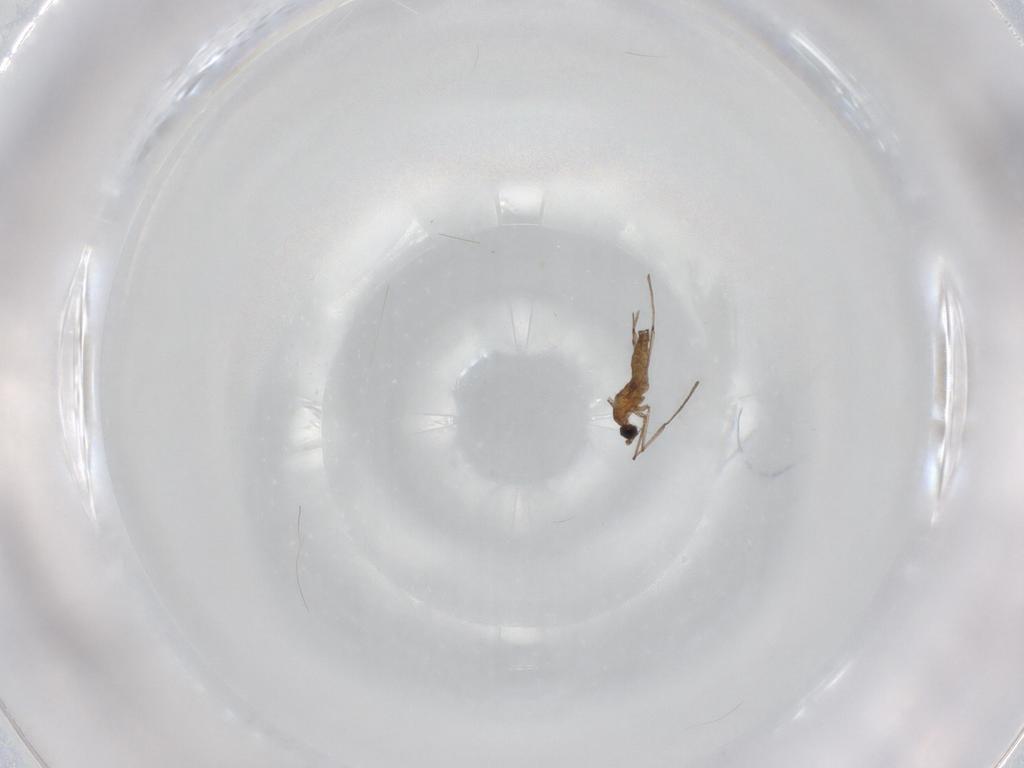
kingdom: Animalia
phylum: Arthropoda
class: Insecta
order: Diptera
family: Cecidomyiidae
